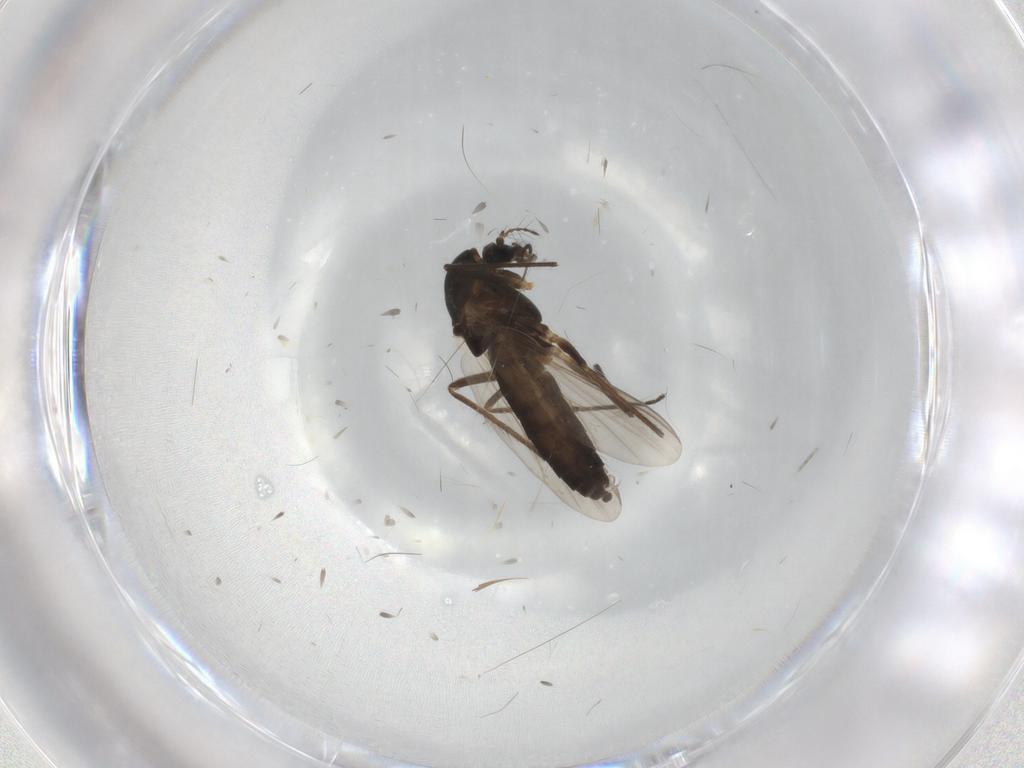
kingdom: Animalia
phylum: Arthropoda
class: Insecta
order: Diptera
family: Chironomidae
